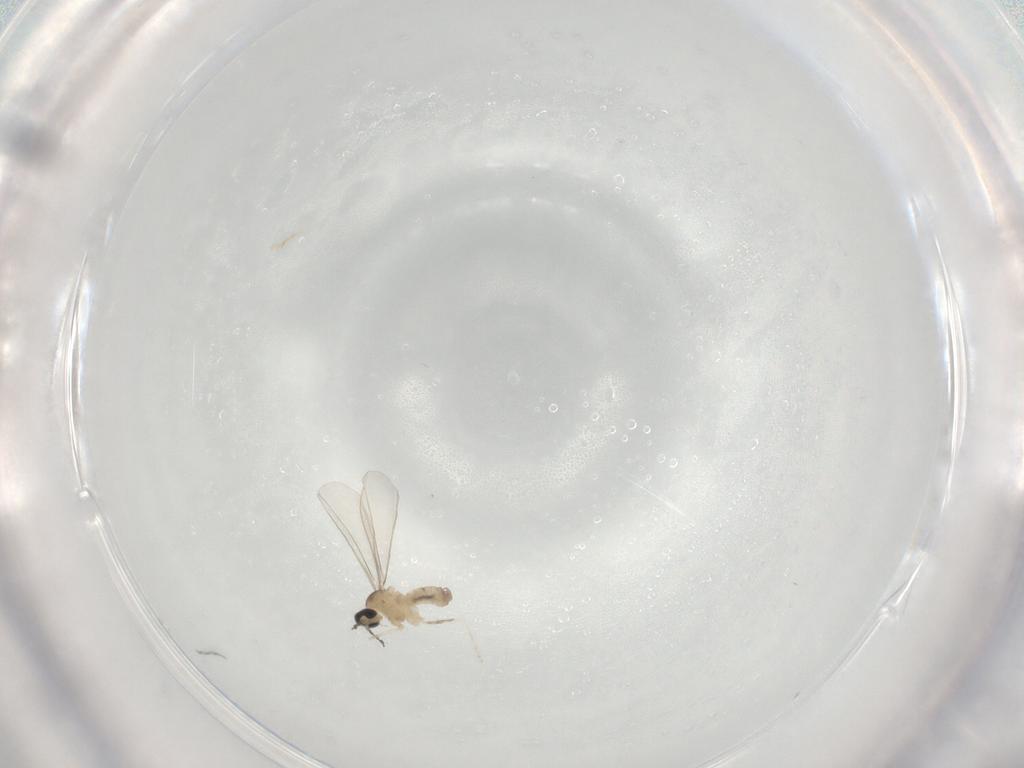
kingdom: Animalia
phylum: Arthropoda
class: Insecta
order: Diptera
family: Cecidomyiidae
